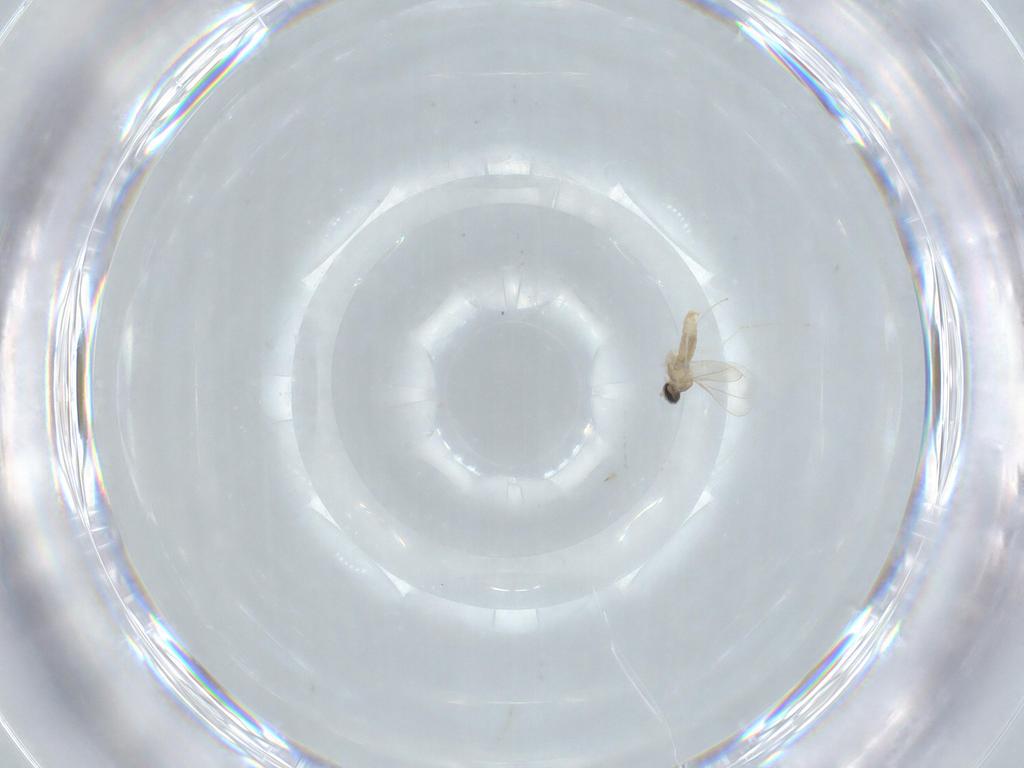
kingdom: Animalia
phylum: Arthropoda
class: Insecta
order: Diptera
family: Cecidomyiidae
